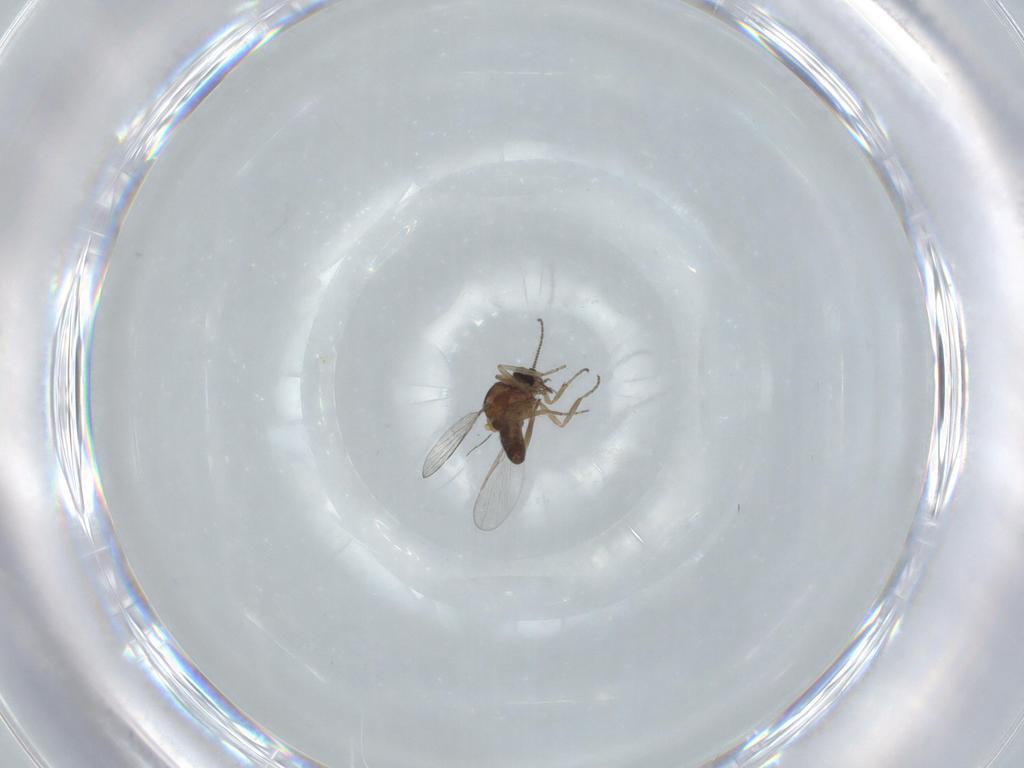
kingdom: Animalia
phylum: Arthropoda
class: Insecta
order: Diptera
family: Ceratopogonidae
